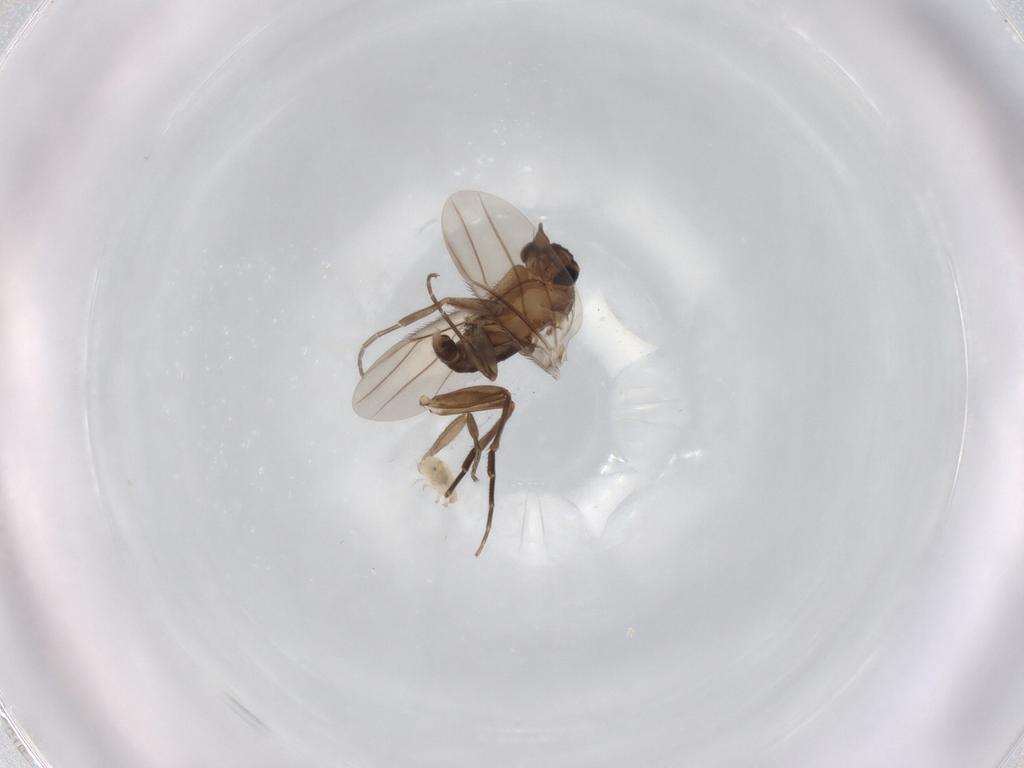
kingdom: Animalia
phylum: Arthropoda
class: Insecta
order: Diptera
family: Phoridae
